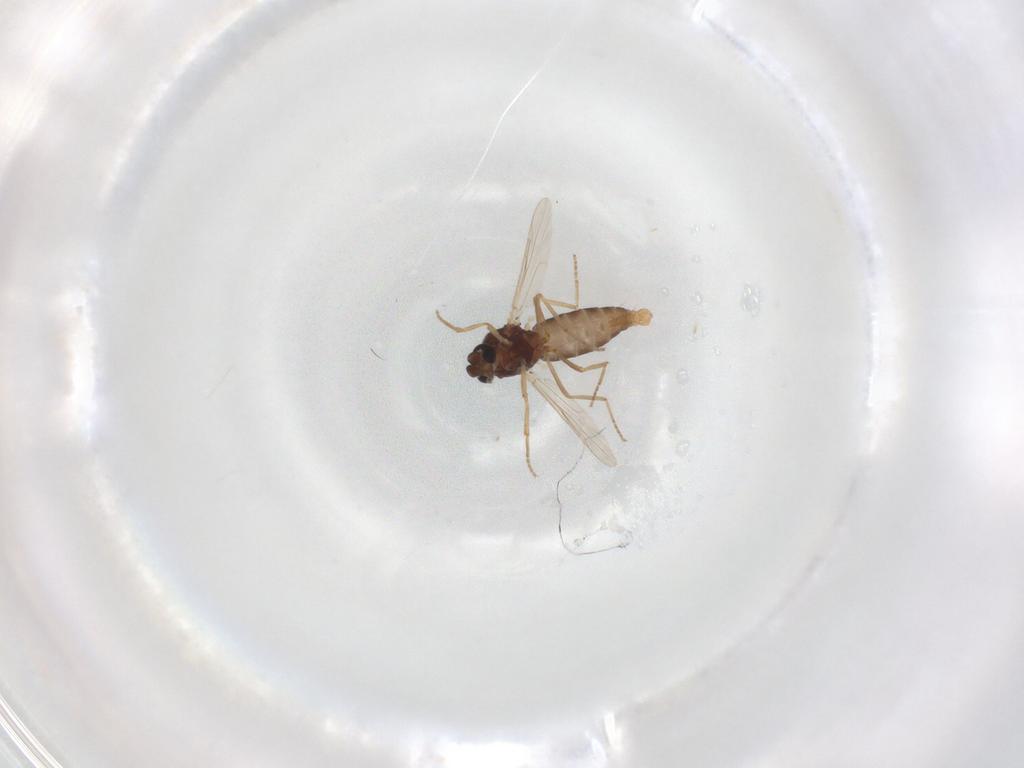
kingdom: Animalia
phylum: Arthropoda
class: Insecta
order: Diptera
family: Ceratopogonidae
